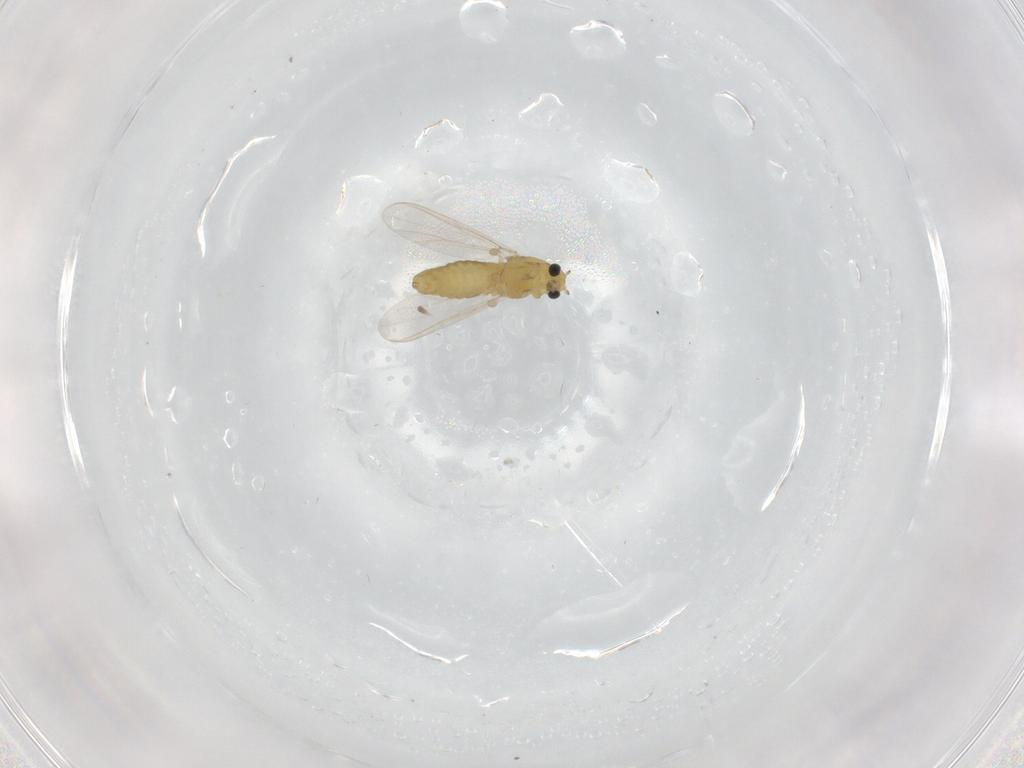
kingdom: Animalia
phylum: Arthropoda
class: Insecta
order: Diptera
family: Chironomidae
